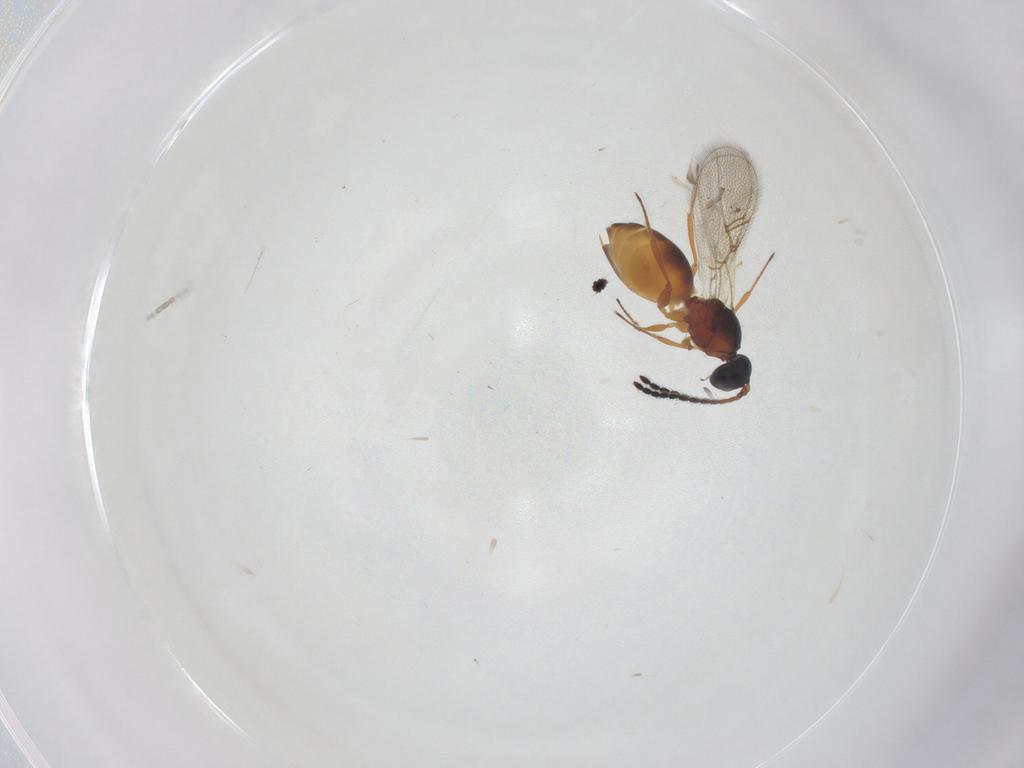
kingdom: Animalia
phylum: Arthropoda
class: Insecta
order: Hymenoptera
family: Figitidae
